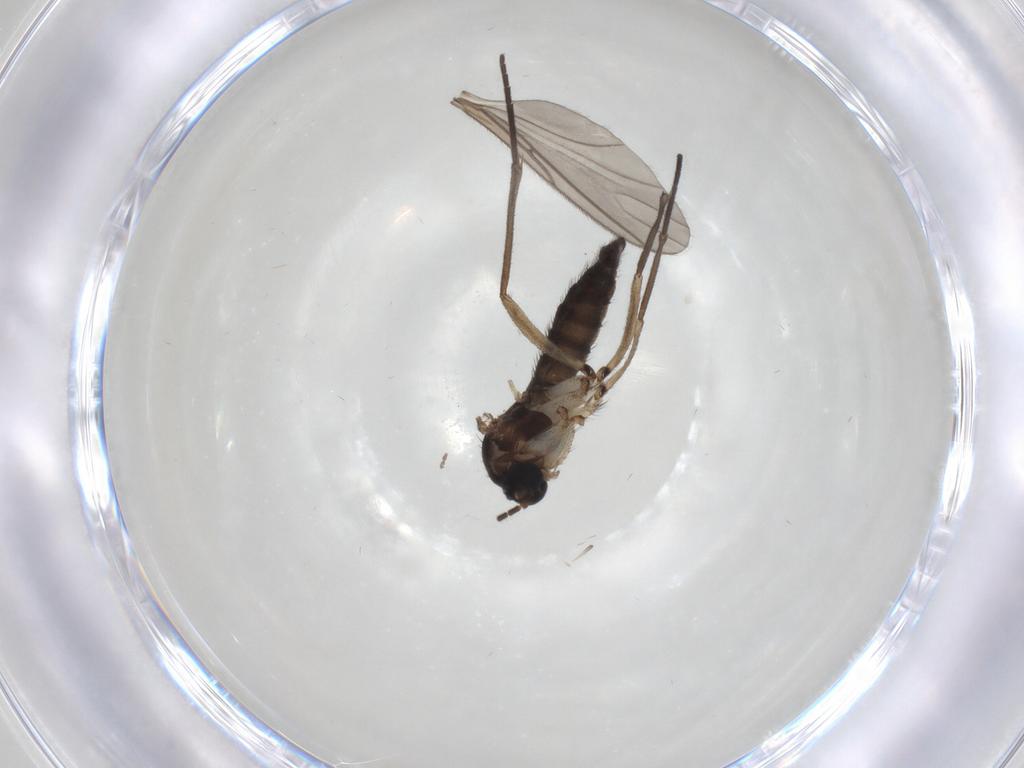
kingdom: Animalia
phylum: Arthropoda
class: Insecta
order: Diptera
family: Sciaridae
